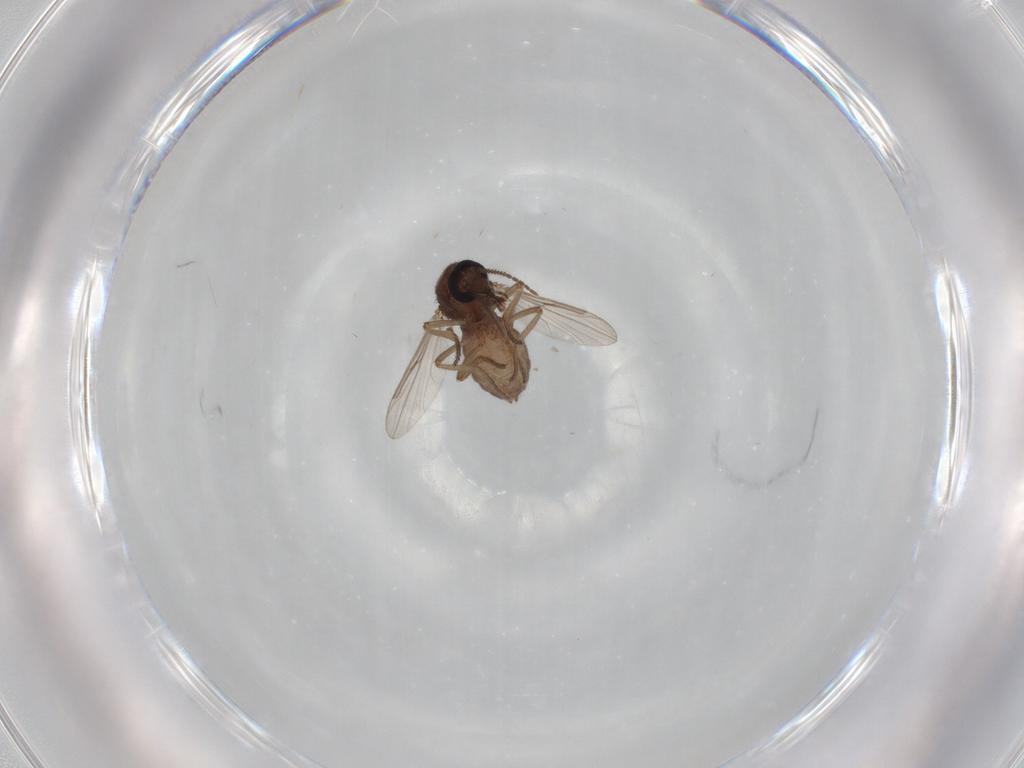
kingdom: Animalia
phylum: Arthropoda
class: Insecta
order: Diptera
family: Ceratopogonidae
